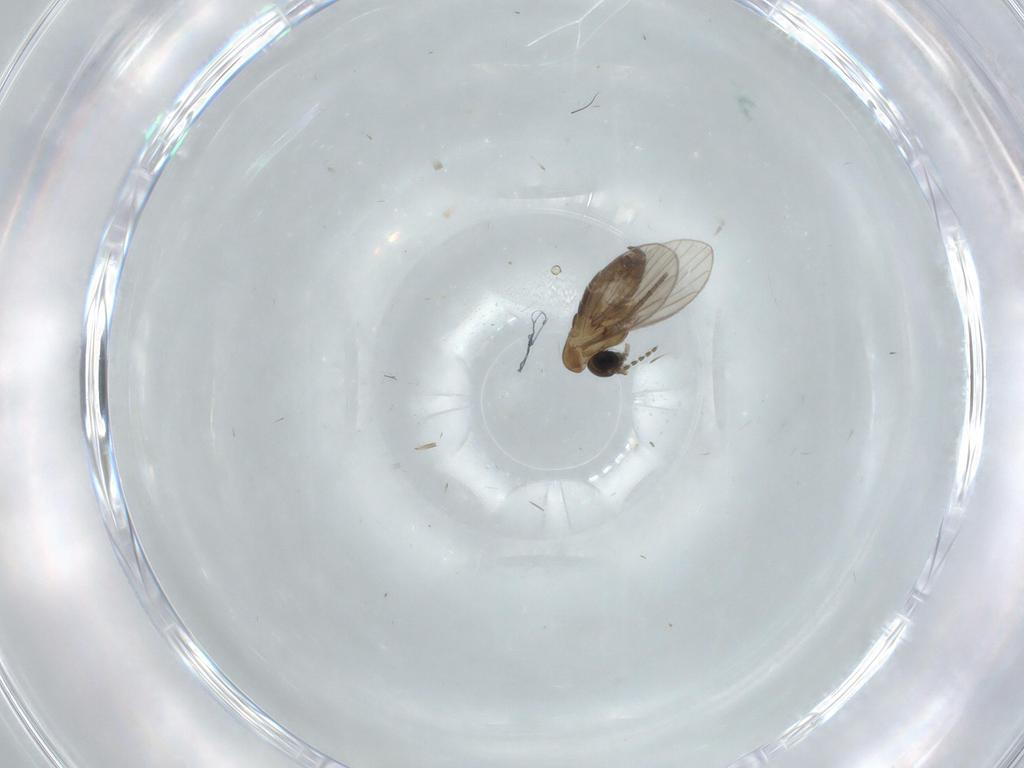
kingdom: Animalia
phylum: Arthropoda
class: Insecta
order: Diptera
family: Psychodidae
